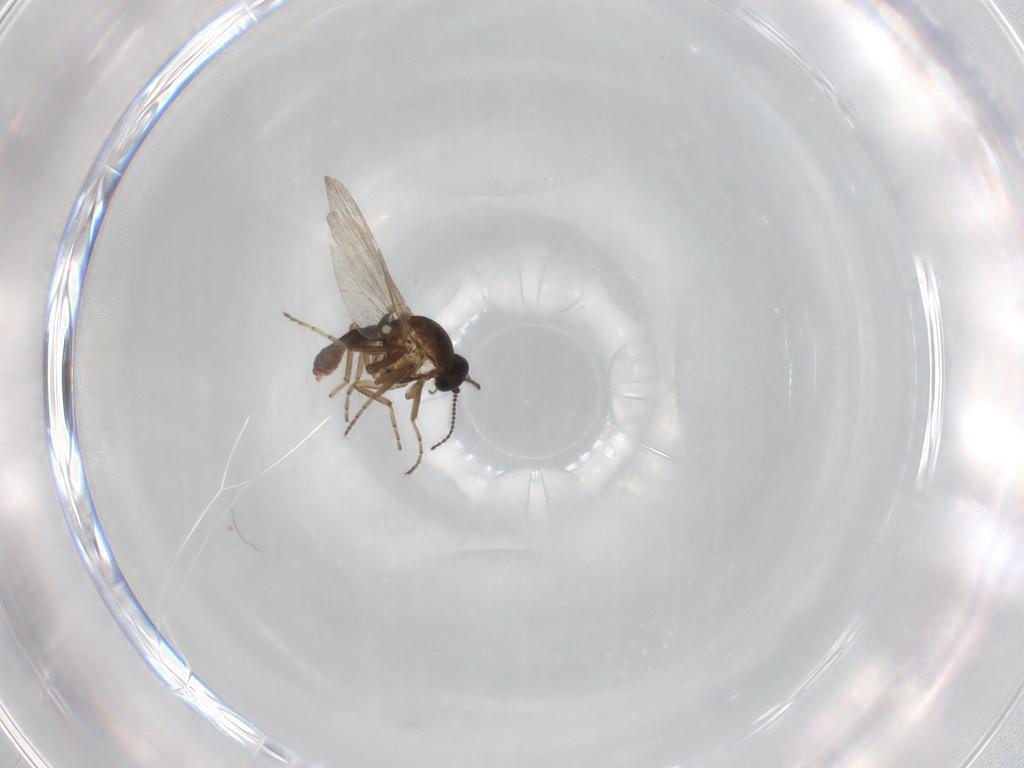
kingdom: Animalia
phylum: Arthropoda
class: Insecta
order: Diptera
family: Ceratopogonidae
